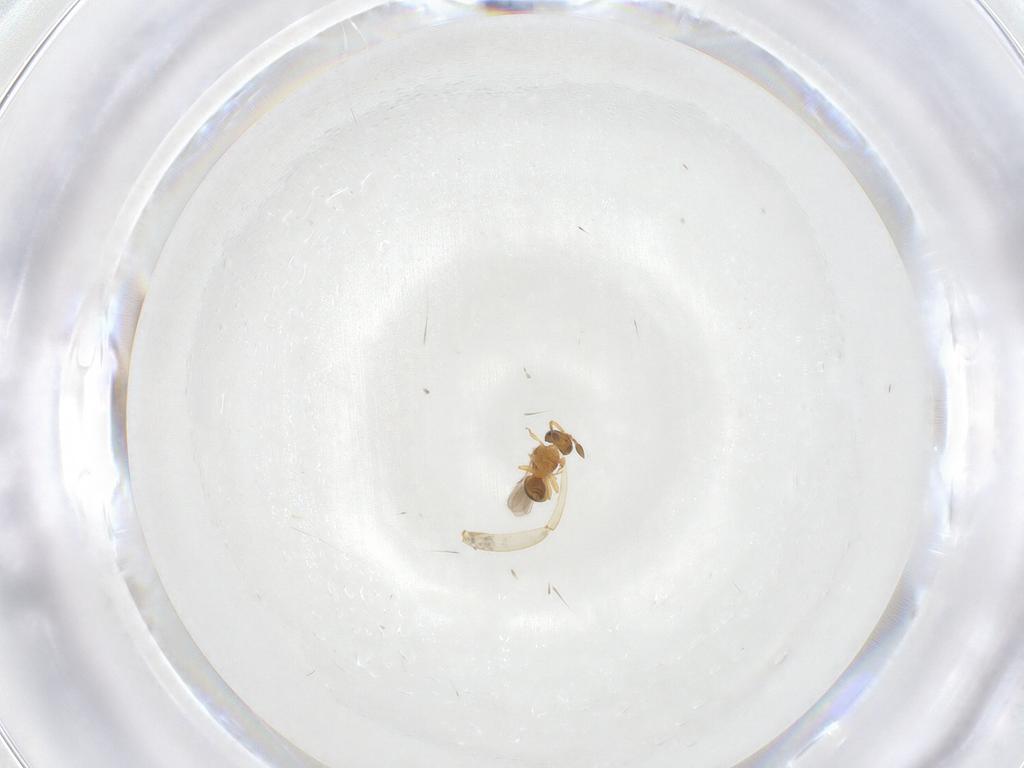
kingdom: Animalia
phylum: Arthropoda
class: Insecta
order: Hymenoptera
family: Scelionidae
